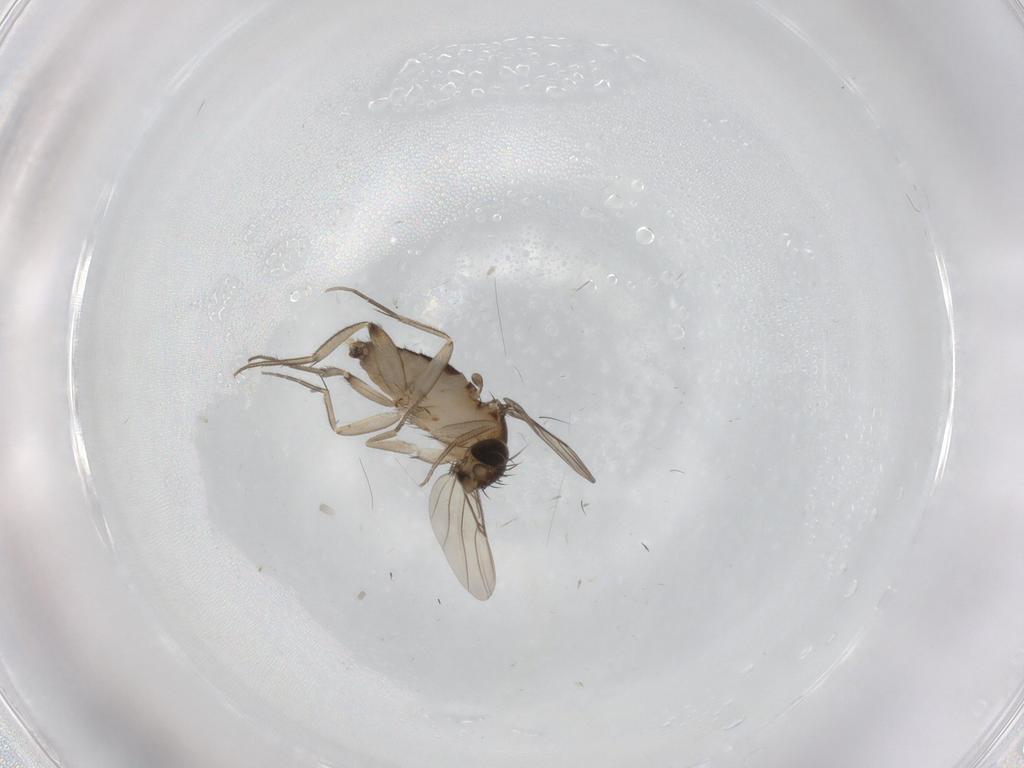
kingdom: Animalia
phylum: Arthropoda
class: Insecta
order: Diptera
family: Phoridae
